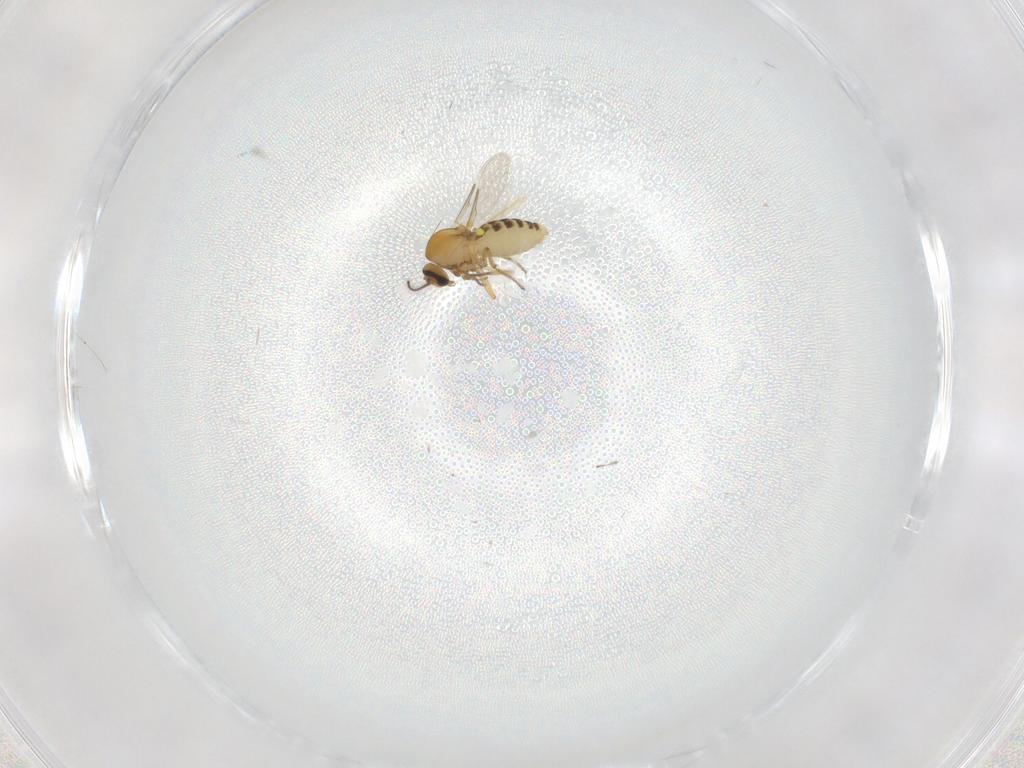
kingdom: Animalia
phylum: Arthropoda
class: Insecta
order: Diptera
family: Ceratopogonidae
